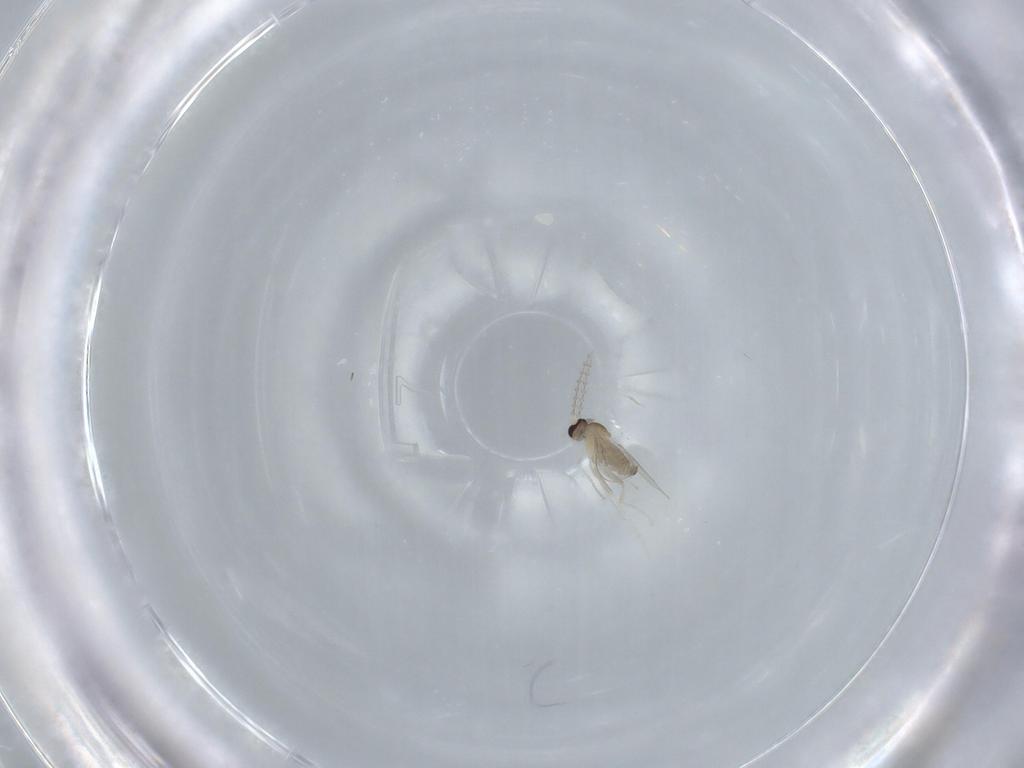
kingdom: Animalia
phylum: Arthropoda
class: Insecta
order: Diptera
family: Cecidomyiidae
